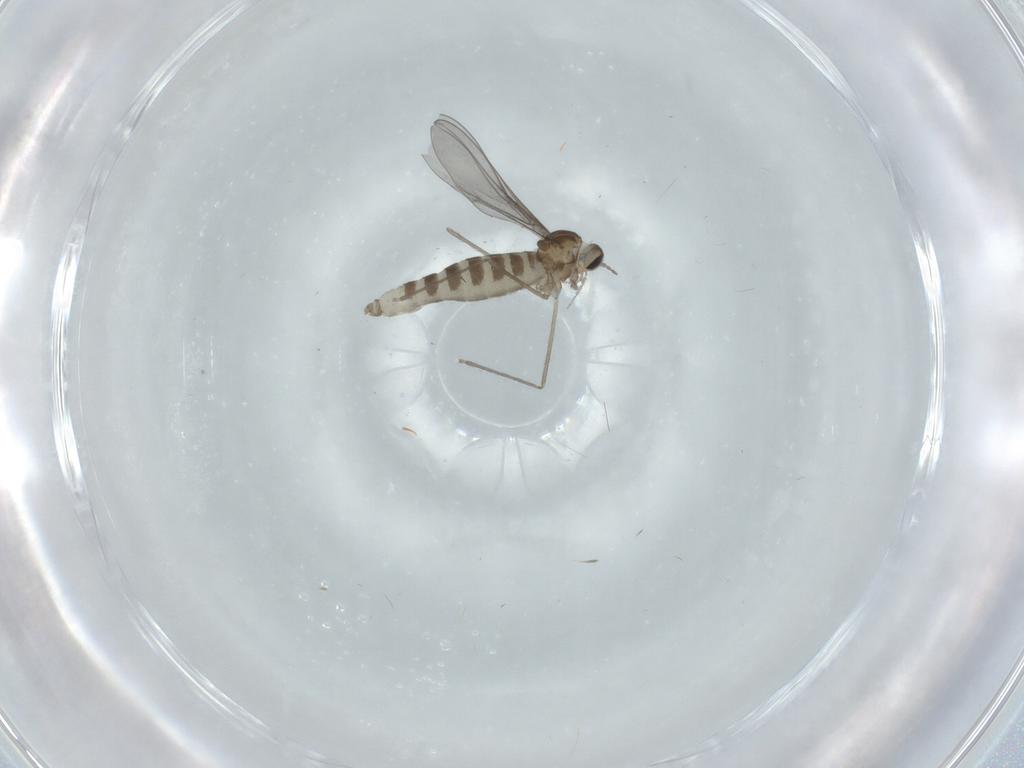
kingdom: Animalia
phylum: Arthropoda
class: Insecta
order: Diptera
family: Cecidomyiidae
